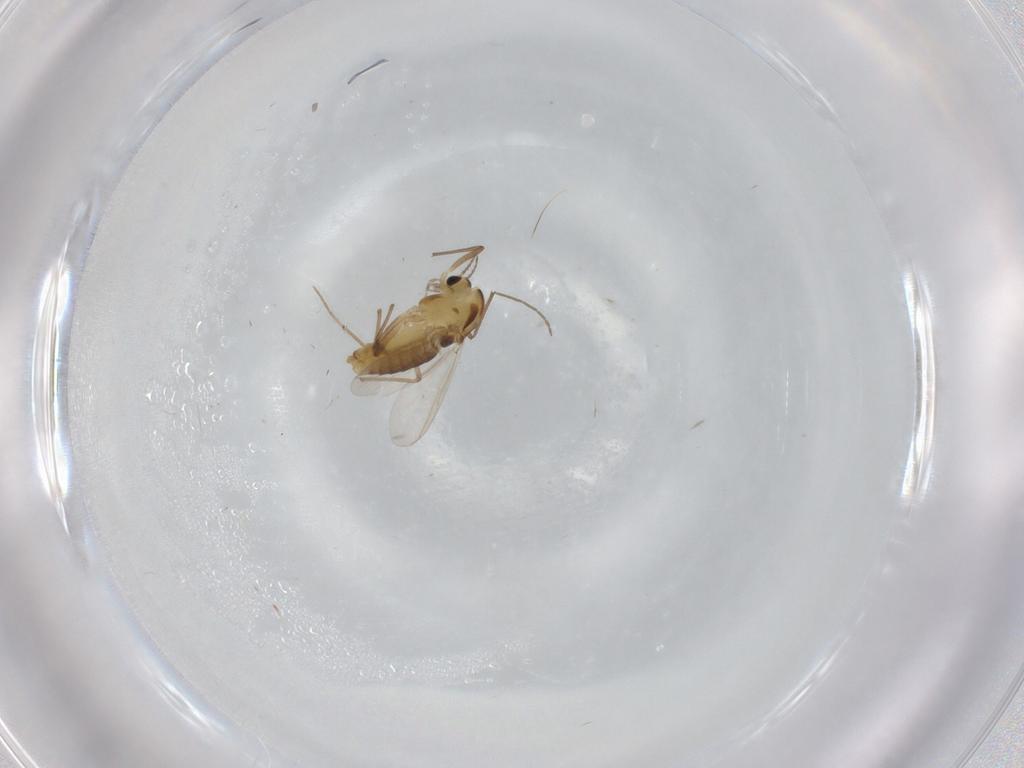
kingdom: Animalia
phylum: Arthropoda
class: Insecta
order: Diptera
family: Chironomidae
